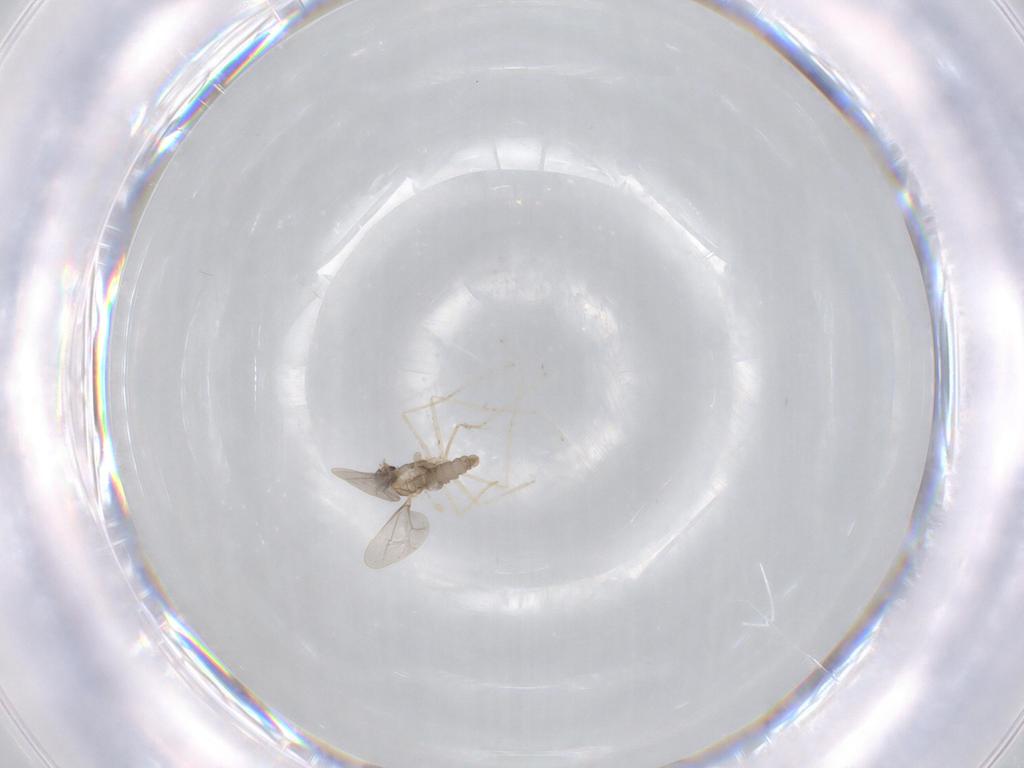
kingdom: Animalia
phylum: Arthropoda
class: Insecta
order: Diptera
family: Cecidomyiidae
